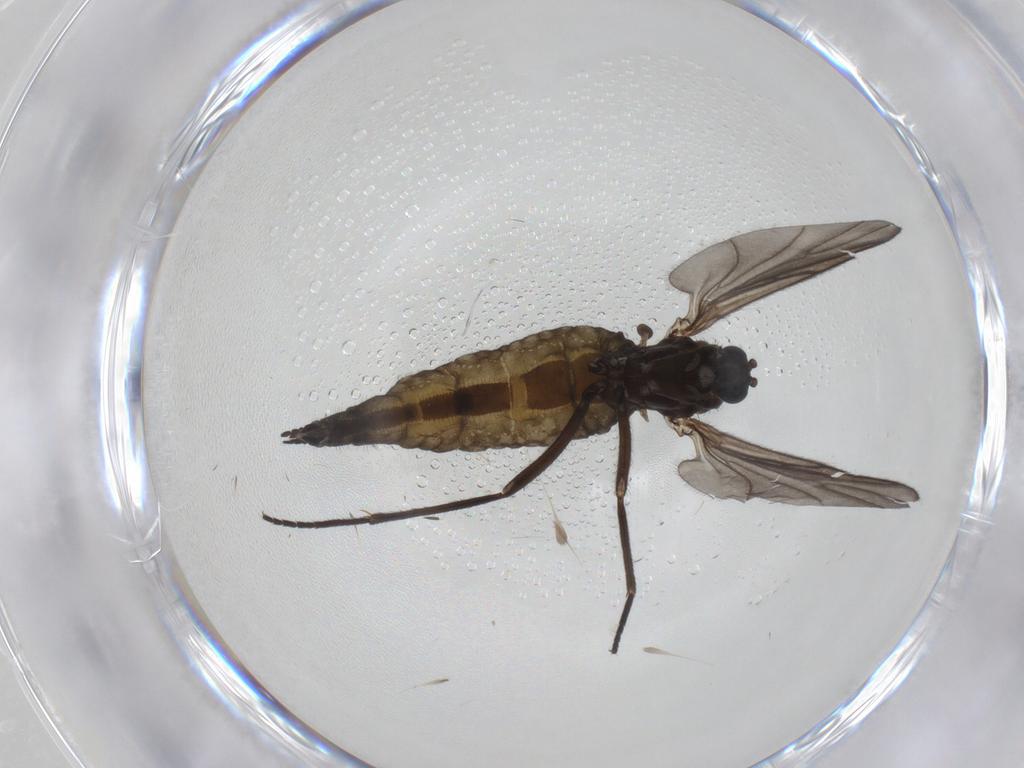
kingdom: Animalia
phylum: Arthropoda
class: Insecta
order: Diptera
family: Sciaridae
